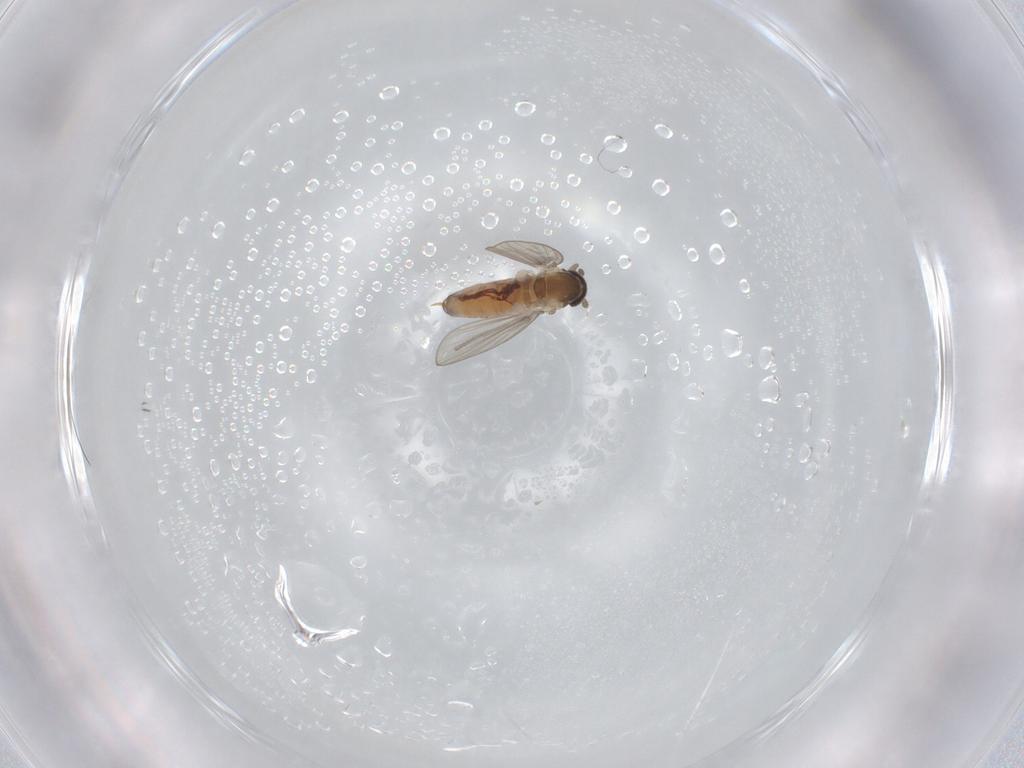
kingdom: Animalia
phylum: Arthropoda
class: Insecta
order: Diptera
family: Psychodidae
